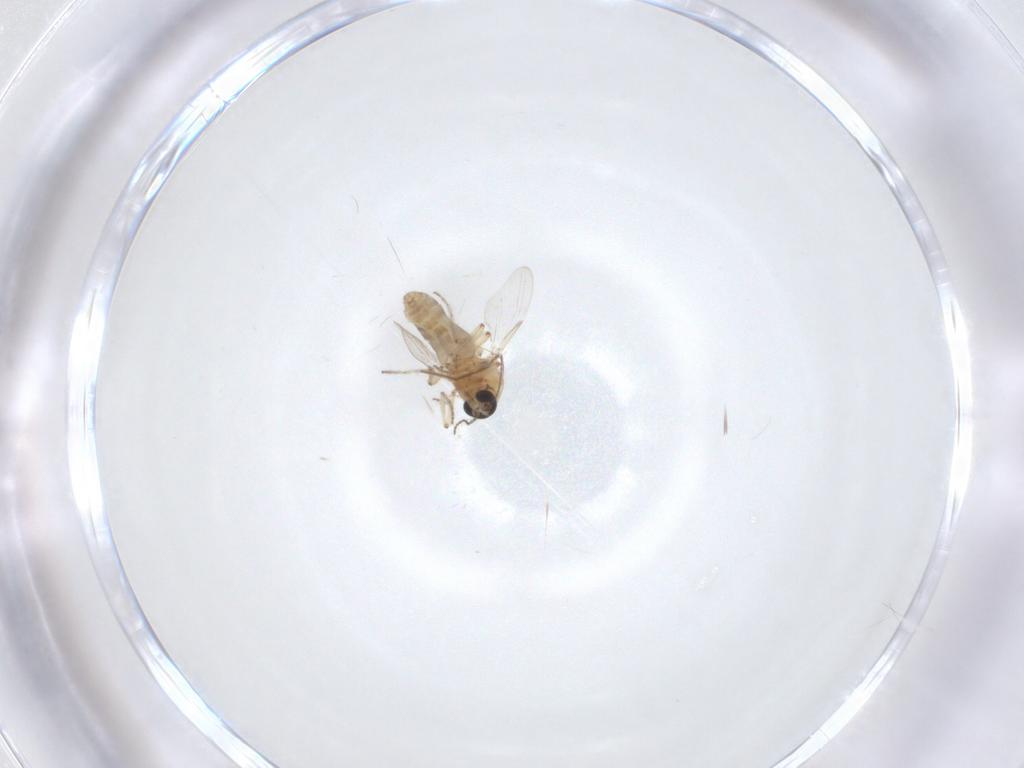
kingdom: Animalia
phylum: Arthropoda
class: Insecta
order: Diptera
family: Ceratopogonidae
